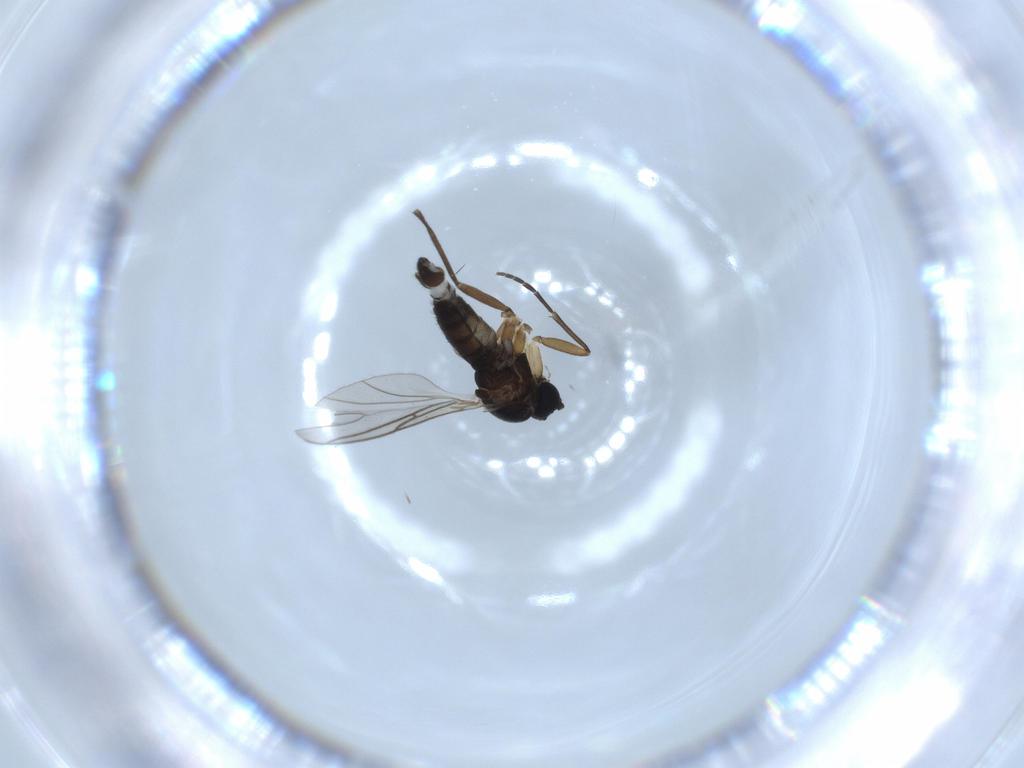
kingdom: Animalia
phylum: Arthropoda
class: Insecta
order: Diptera
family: Sciaridae
